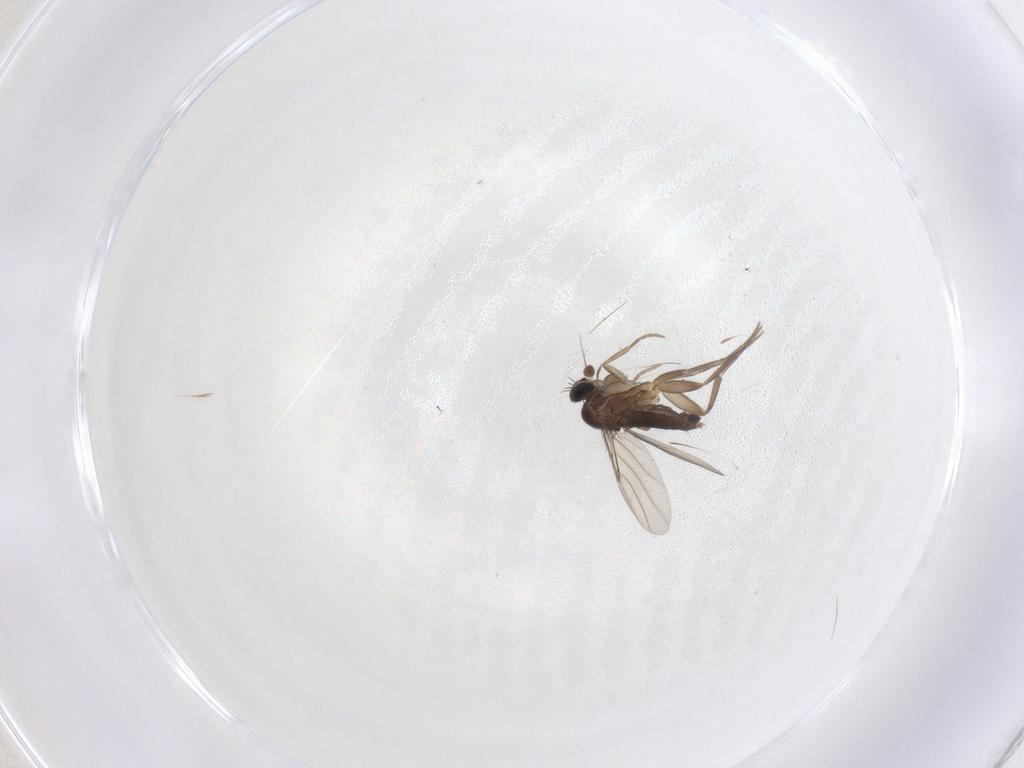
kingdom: Animalia
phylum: Arthropoda
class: Insecta
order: Diptera
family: Phoridae
